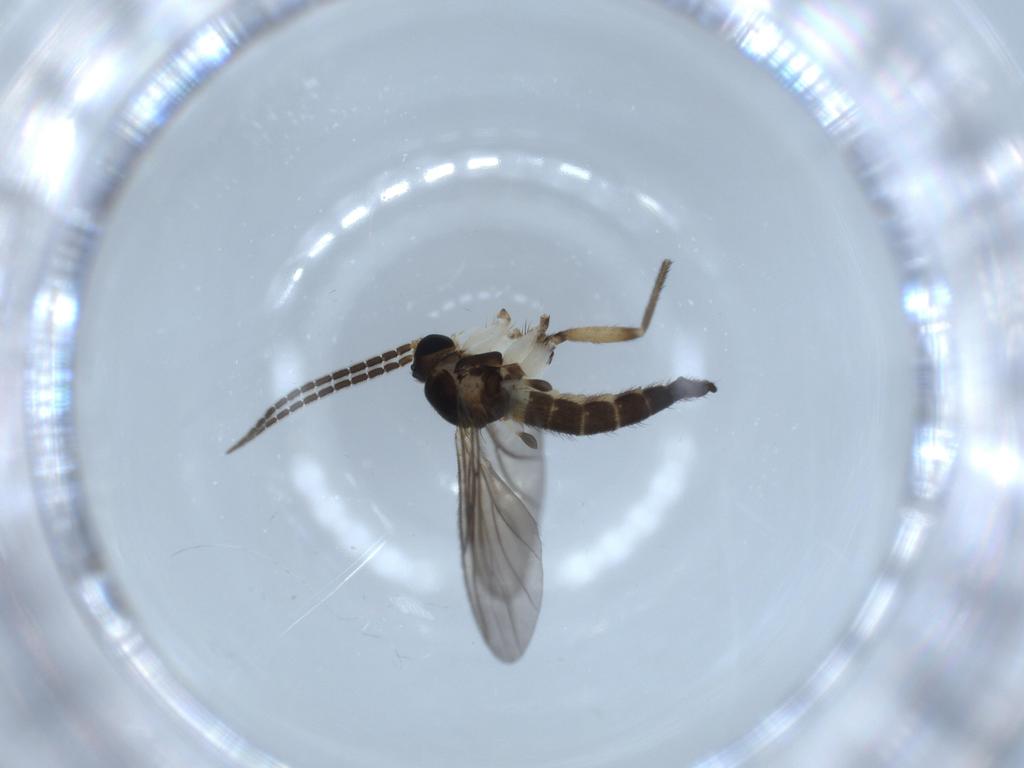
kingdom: Animalia
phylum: Arthropoda
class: Insecta
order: Diptera
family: Sciaridae
